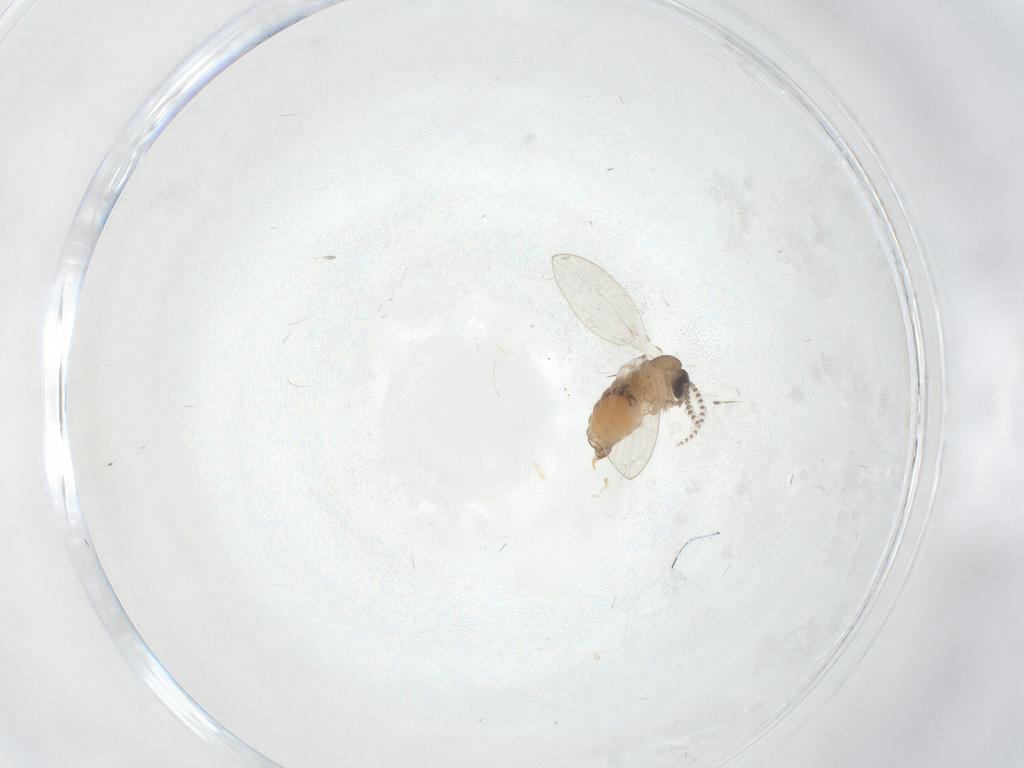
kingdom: Animalia
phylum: Arthropoda
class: Insecta
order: Diptera
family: Psychodidae
